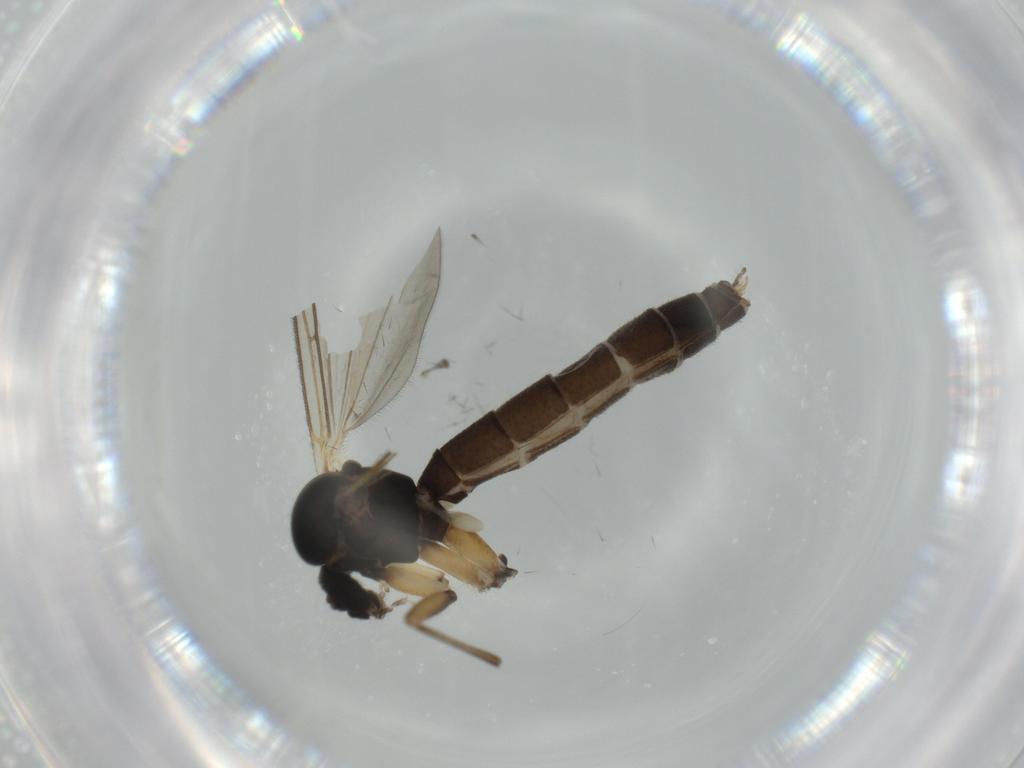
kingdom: Animalia
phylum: Arthropoda
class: Insecta
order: Diptera
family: Mycetophilidae
